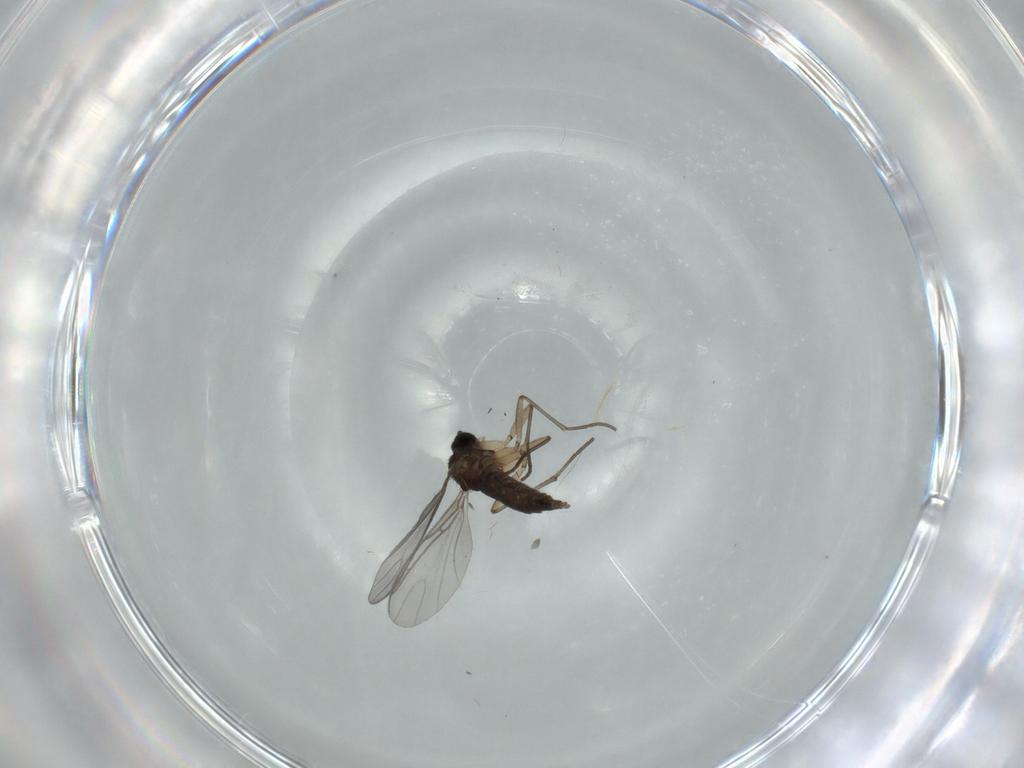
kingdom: Animalia
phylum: Arthropoda
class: Insecta
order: Diptera
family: Sciaridae
